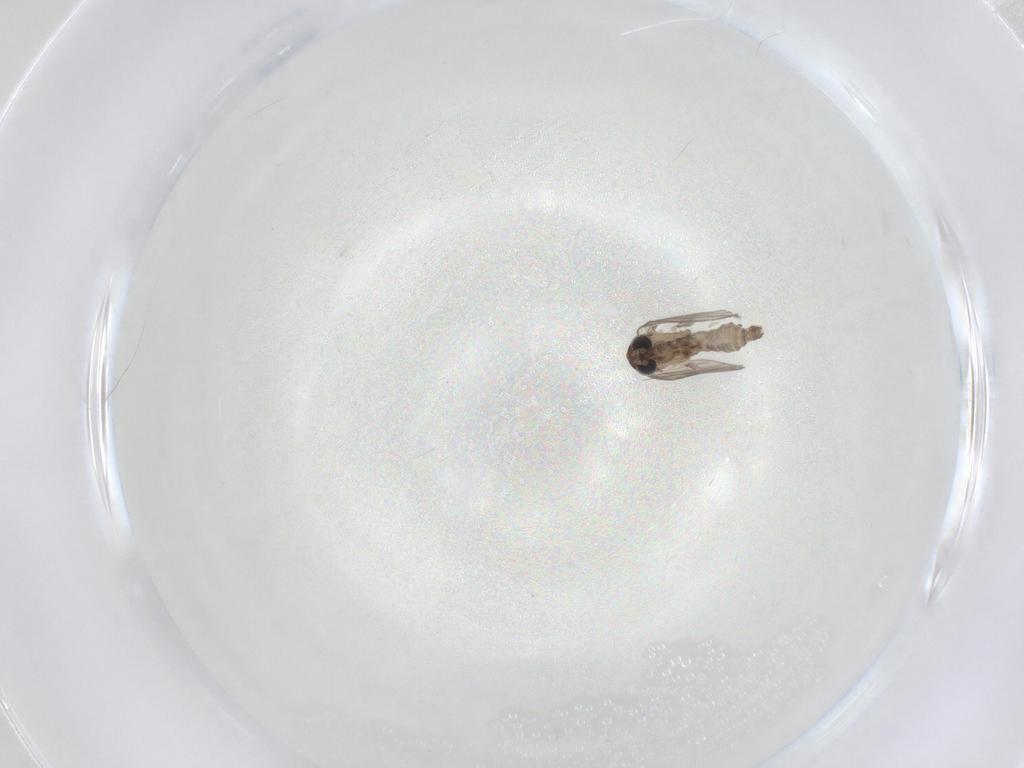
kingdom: Animalia
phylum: Arthropoda
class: Insecta
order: Diptera
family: Psychodidae
